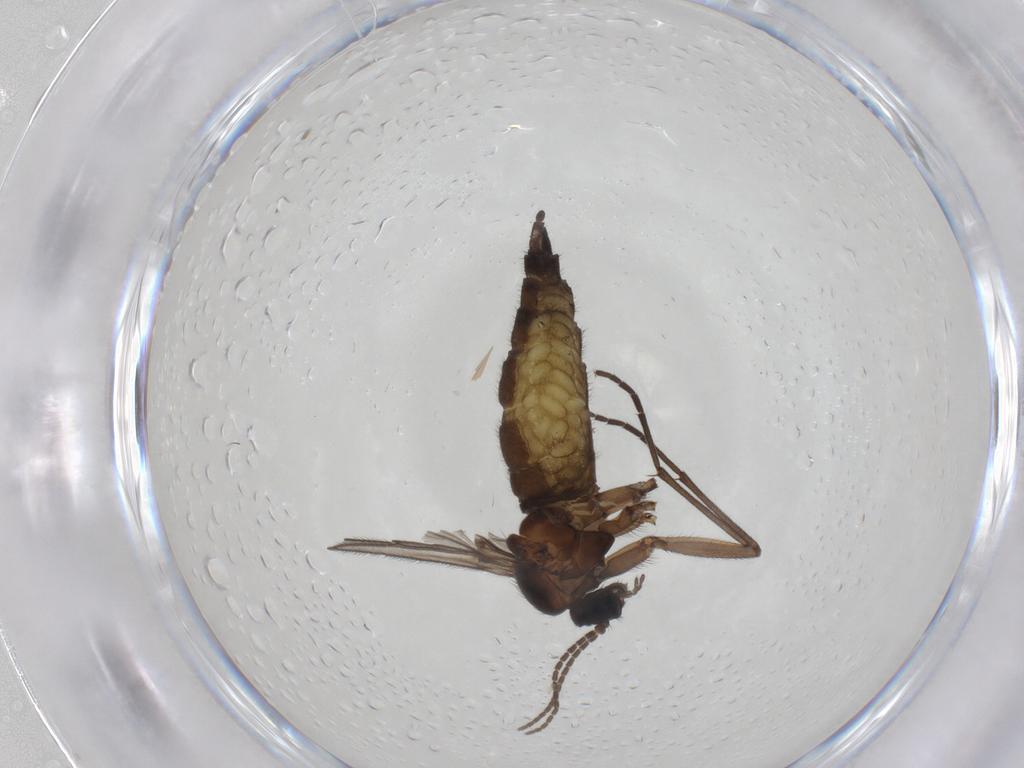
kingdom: Animalia
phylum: Arthropoda
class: Insecta
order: Diptera
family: Sciaridae
